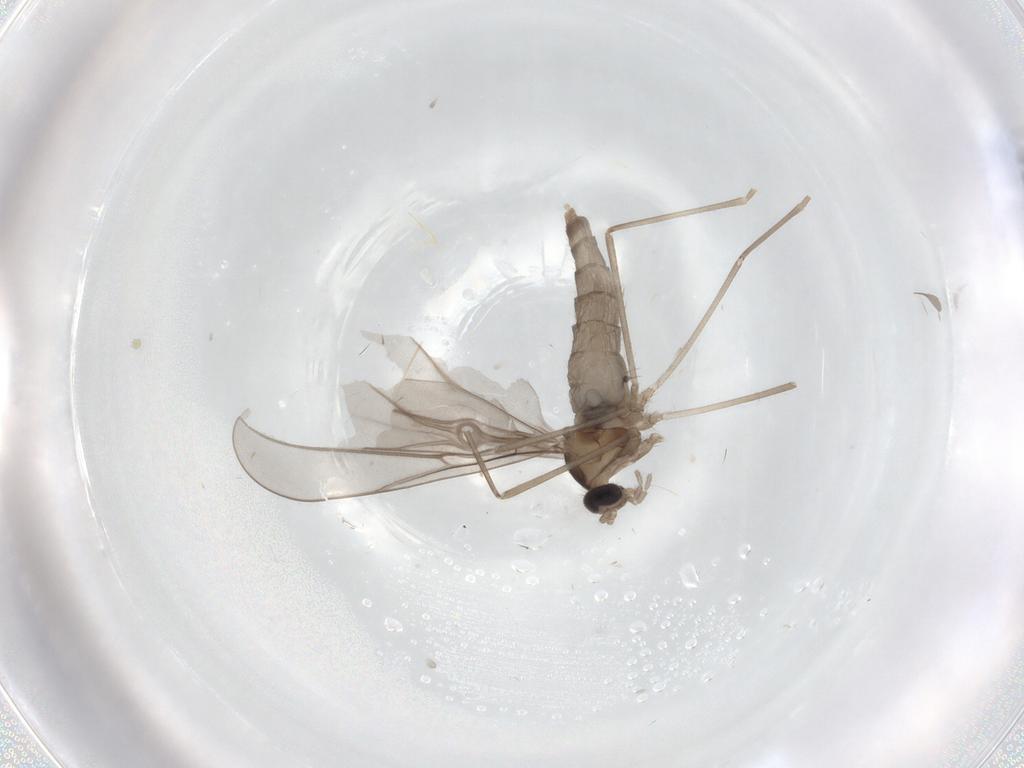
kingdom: Animalia
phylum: Arthropoda
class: Insecta
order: Diptera
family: Cecidomyiidae
